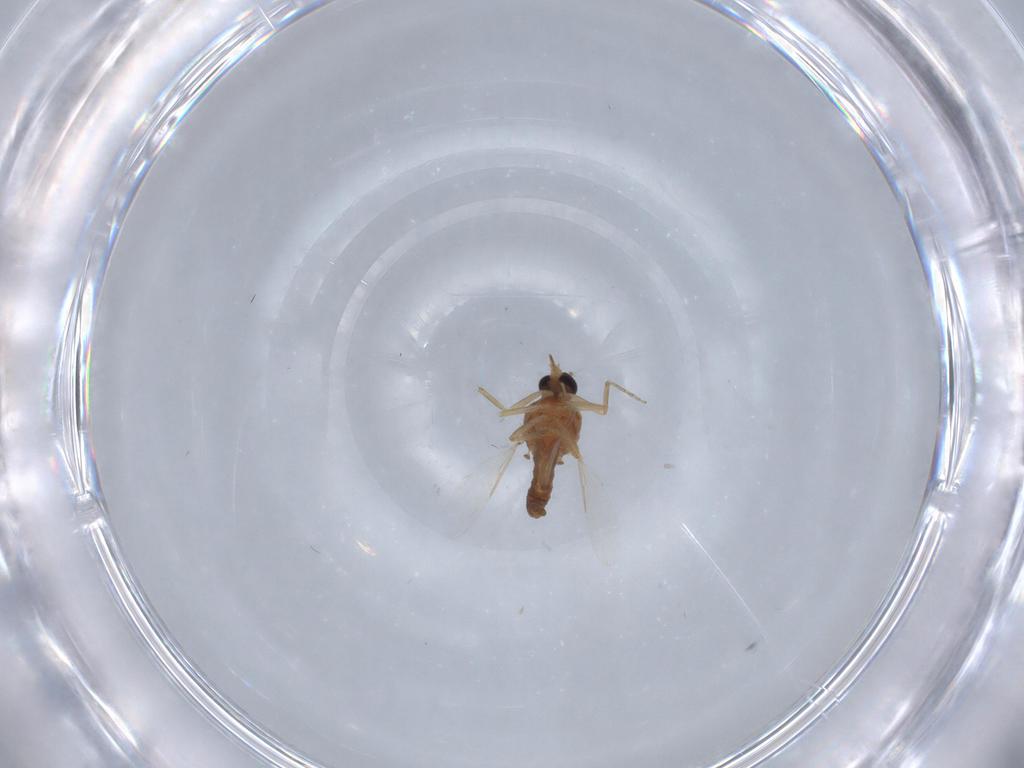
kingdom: Animalia
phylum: Arthropoda
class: Insecta
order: Diptera
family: Ceratopogonidae
